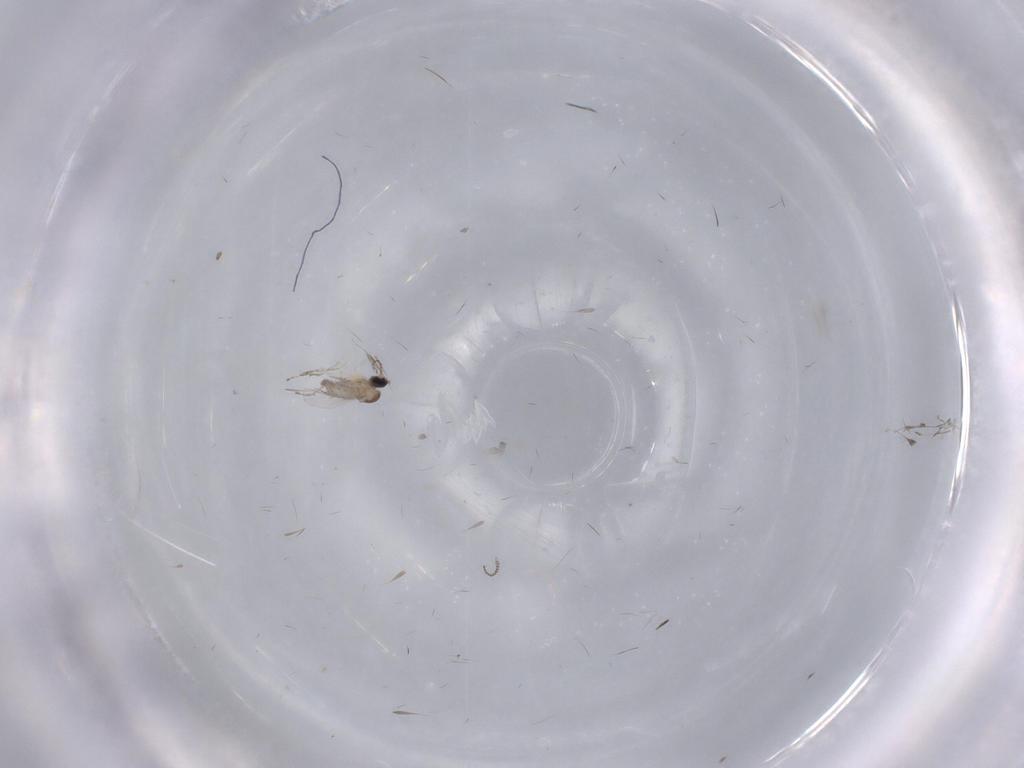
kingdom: Animalia
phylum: Arthropoda
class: Insecta
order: Diptera
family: Cecidomyiidae
